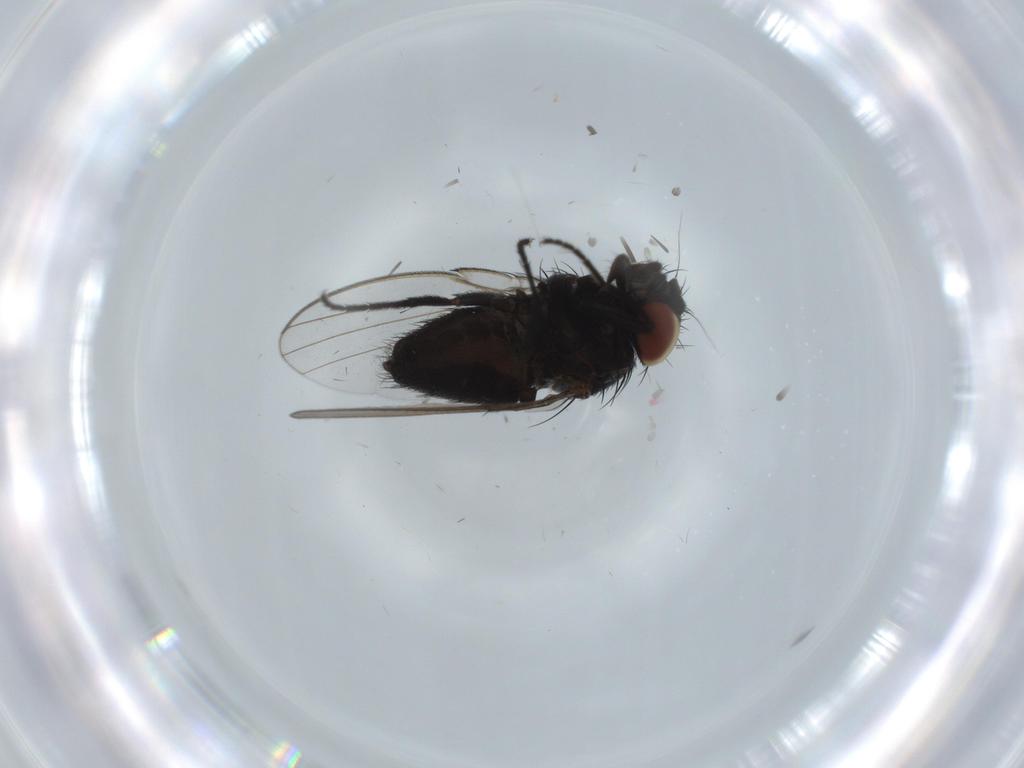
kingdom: Animalia
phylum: Arthropoda
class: Insecta
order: Diptera
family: Milichiidae
